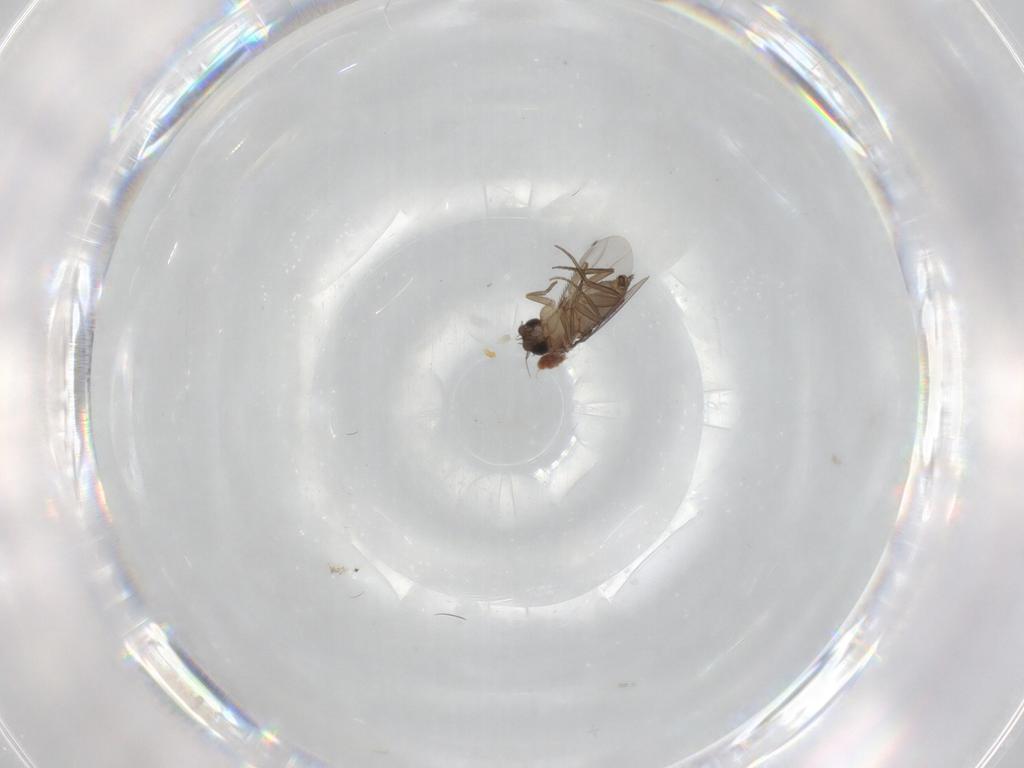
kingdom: Animalia
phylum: Arthropoda
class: Insecta
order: Diptera
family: Phoridae
